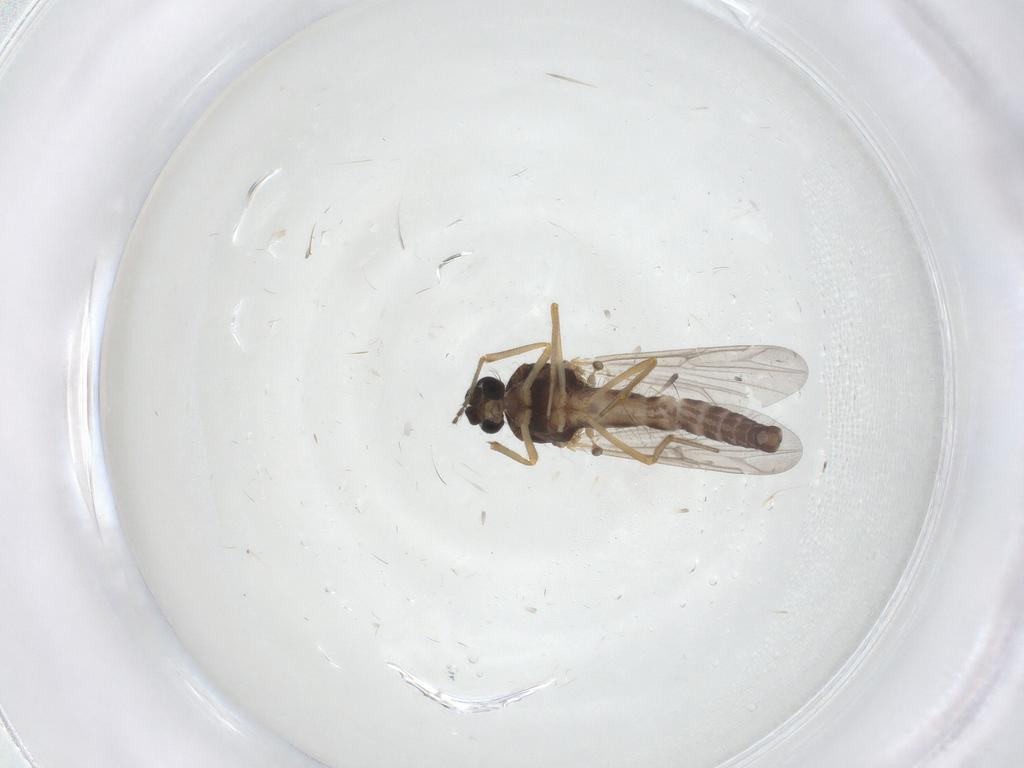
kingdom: Animalia
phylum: Arthropoda
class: Insecta
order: Diptera
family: Ceratopogonidae
